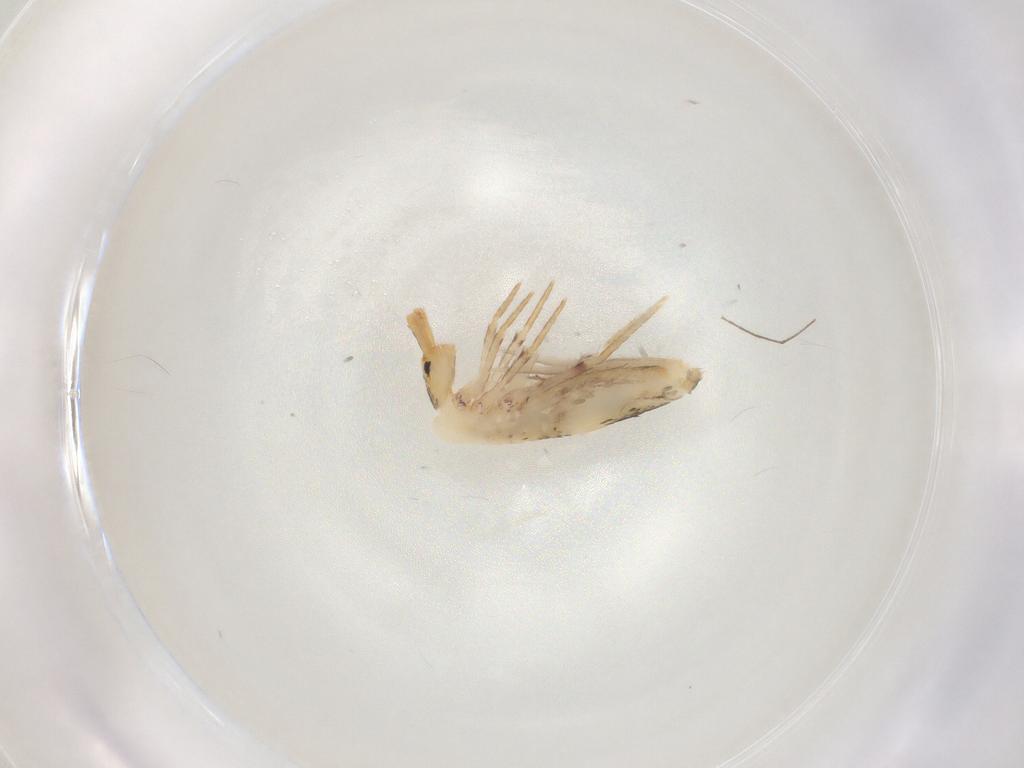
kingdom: Animalia
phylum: Arthropoda
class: Collembola
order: Poduromorpha
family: Hypogastruridae
